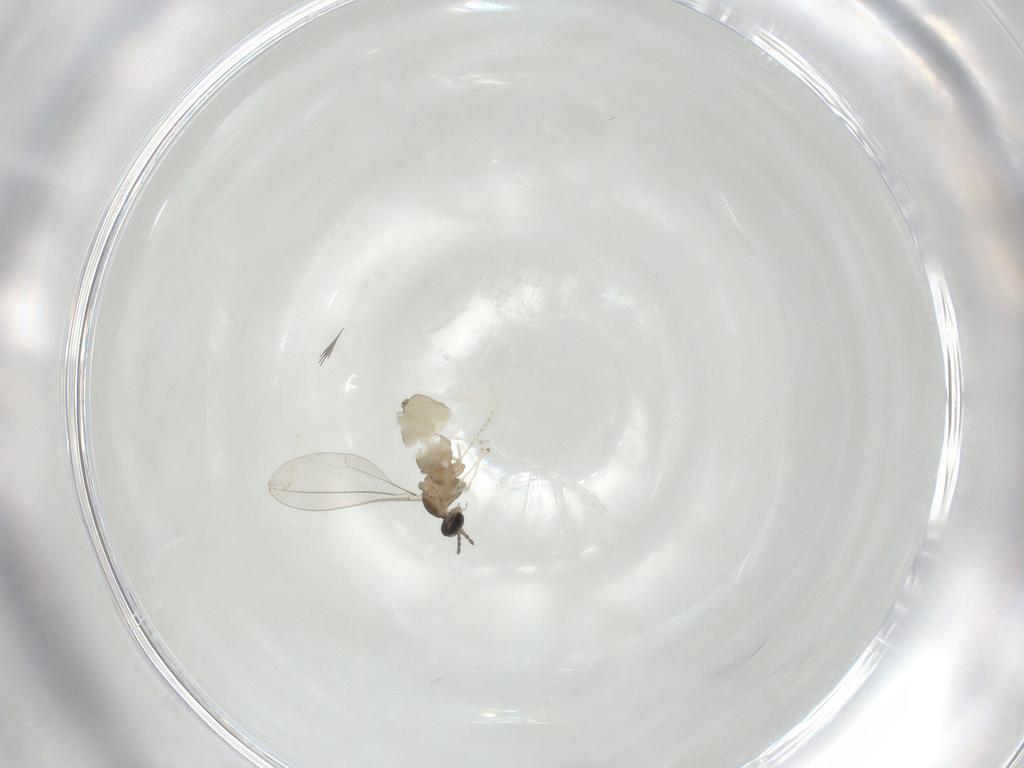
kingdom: Animalia
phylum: Arthropoda
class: Insecta
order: Diptera
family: Cecidomyiidae
